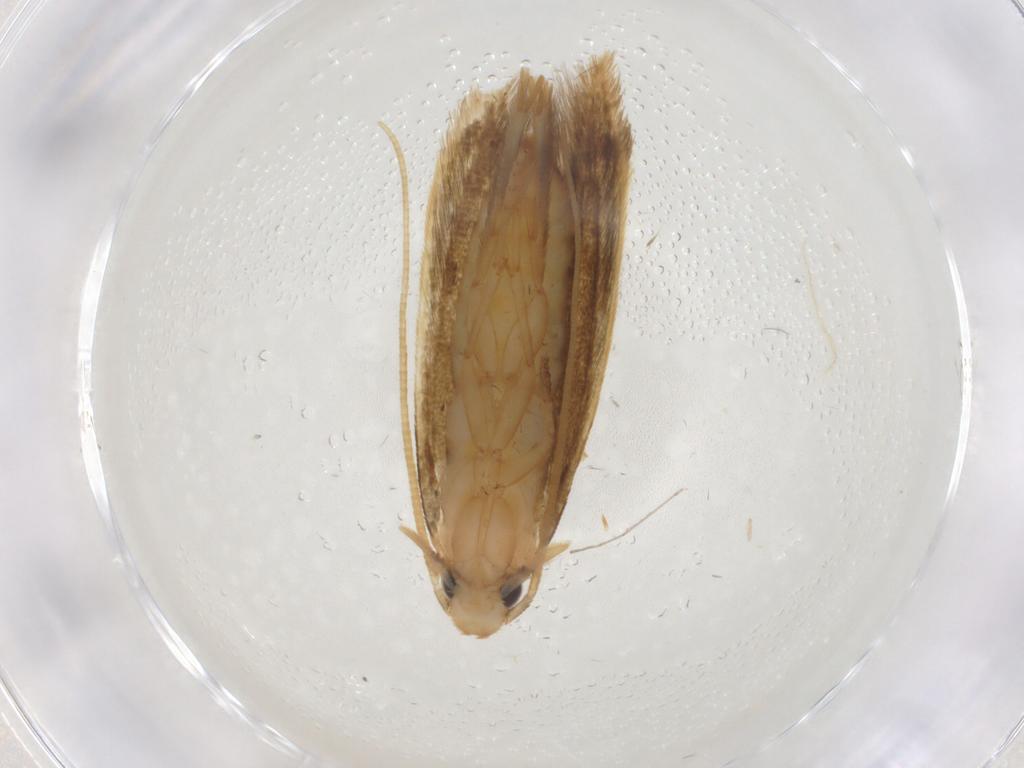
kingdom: Animalia
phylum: Arthropoda
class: Insecta
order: Lepidoptera
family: Tineidae
